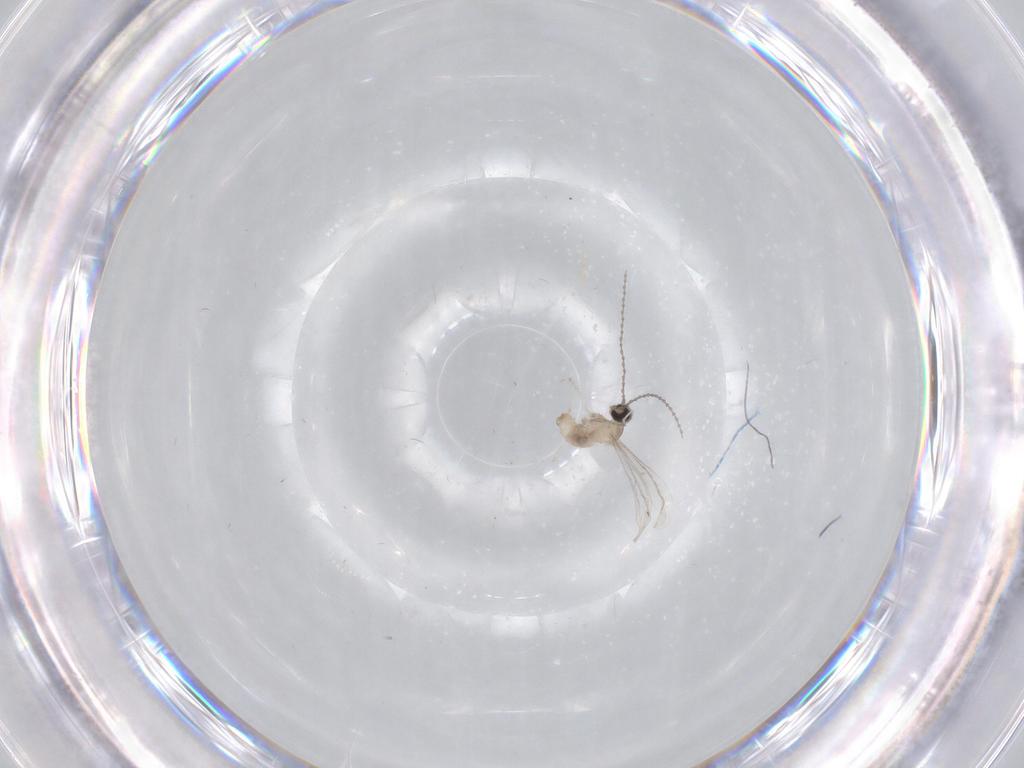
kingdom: Animalia
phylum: Arthropoda
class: Insecta
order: Diptera
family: Cecidomyiidae
